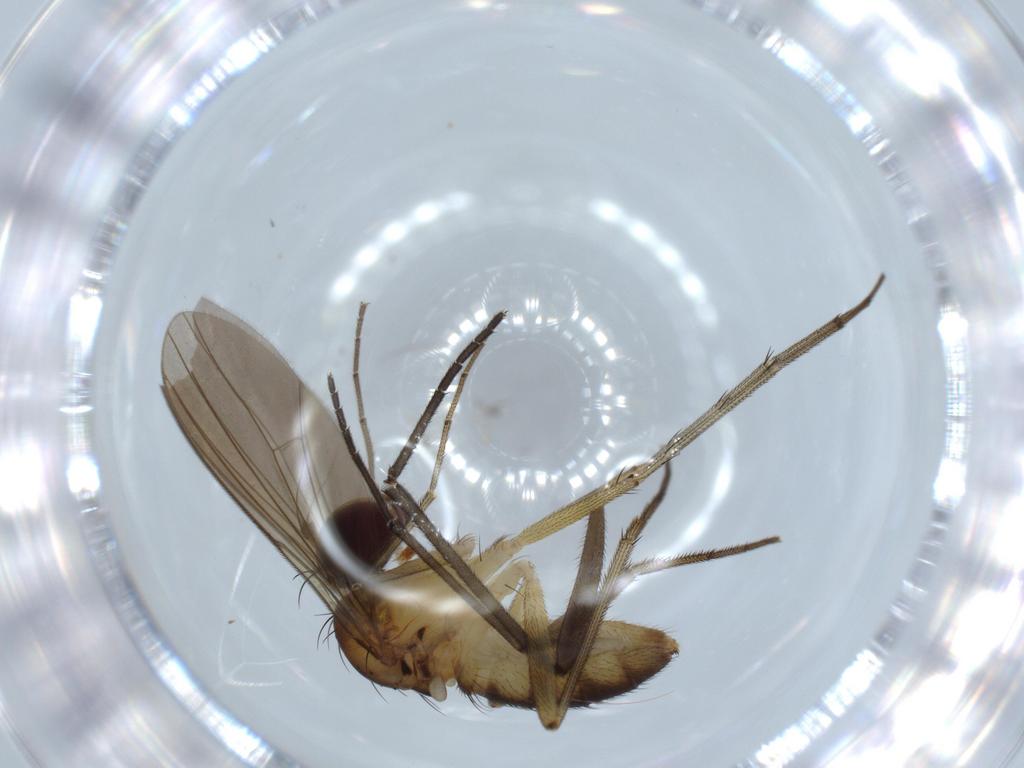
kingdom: Animalia
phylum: Arthropoda
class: Insecta
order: Diptera
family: Sciaridae
